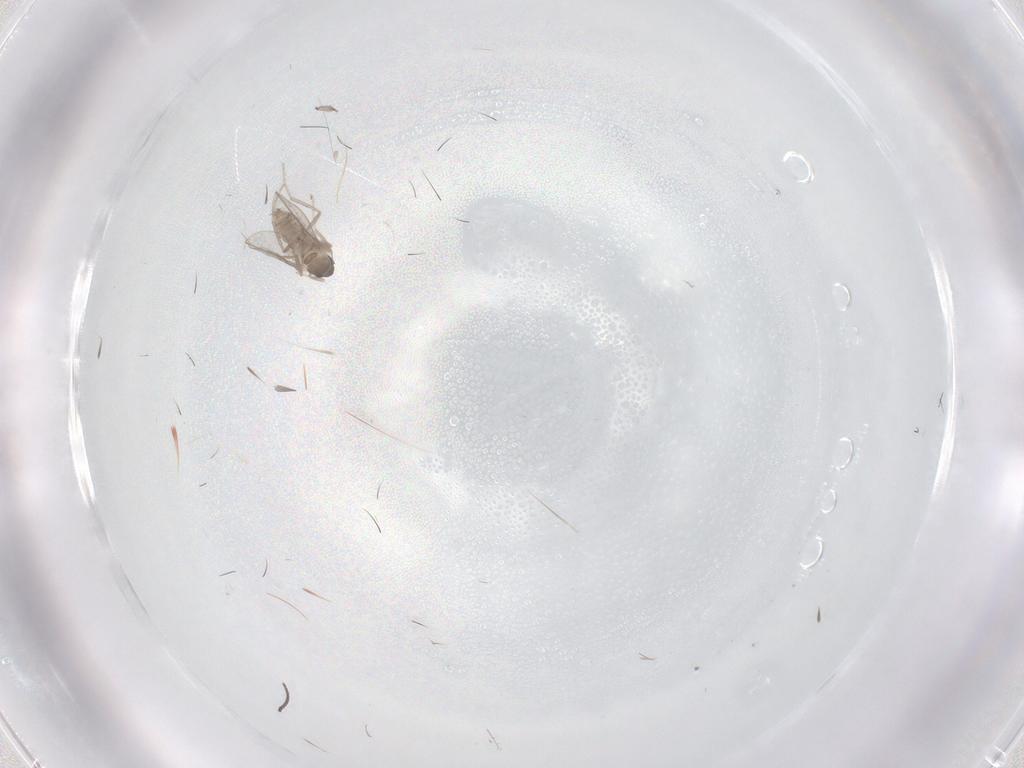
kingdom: Animalia
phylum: Arthropoda
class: Insecta
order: Diptera
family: Cecidomyiidae
